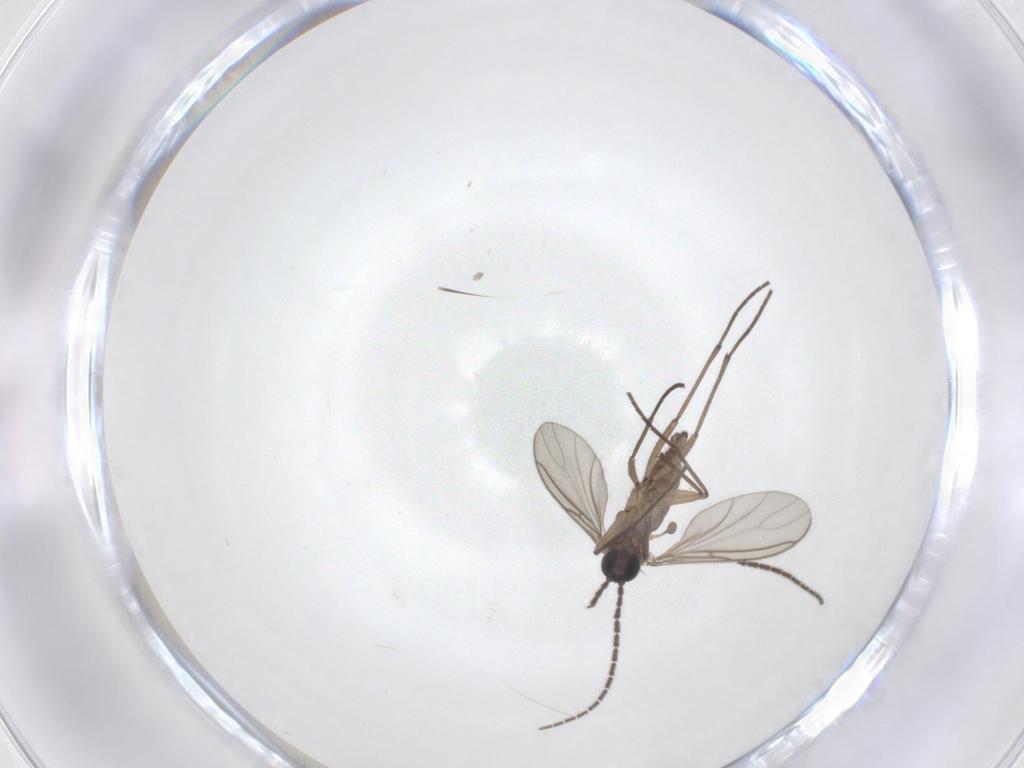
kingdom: Animalia
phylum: Arthropoda
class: Insecta
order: Diptera
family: Sciaridae
